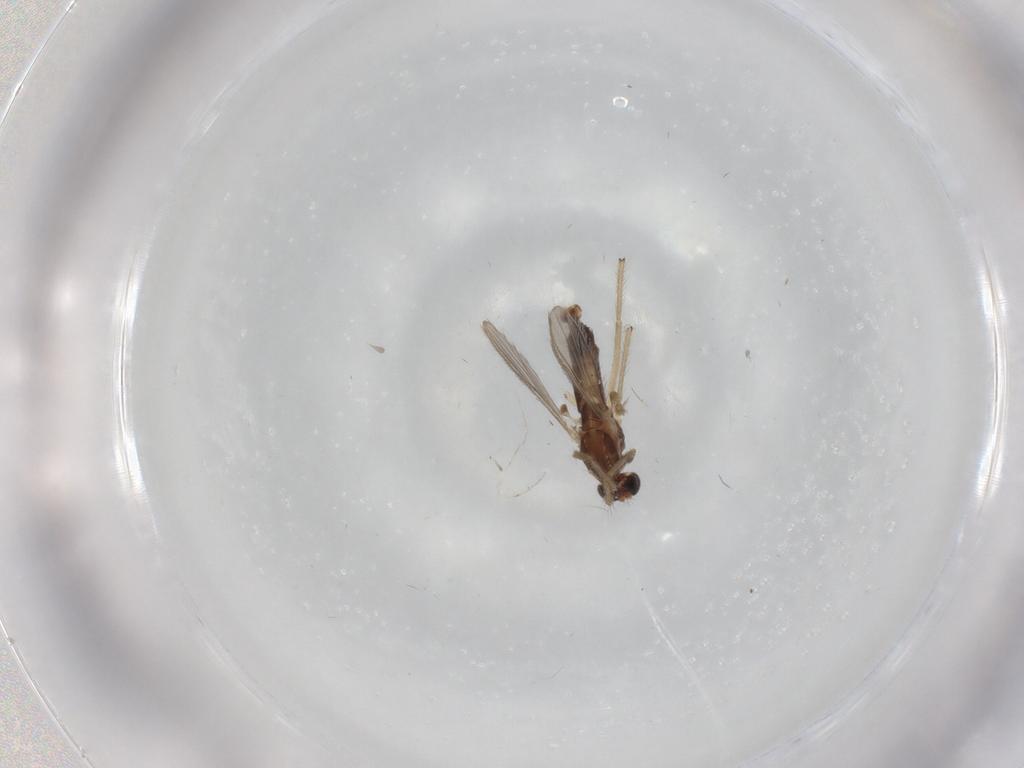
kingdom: Animalia
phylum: Arthropoda
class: Insecta
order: Diptera
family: Chironomidae
